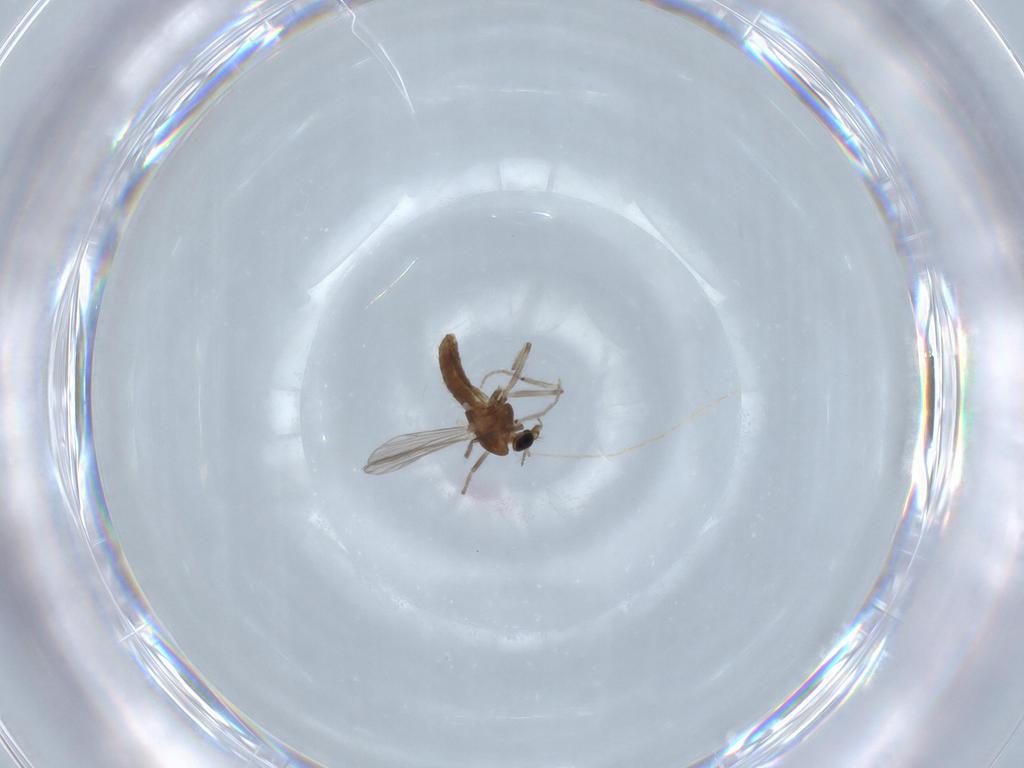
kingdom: Animalia
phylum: Arthropoda
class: Insecta
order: Diptera
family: Chironomidae
